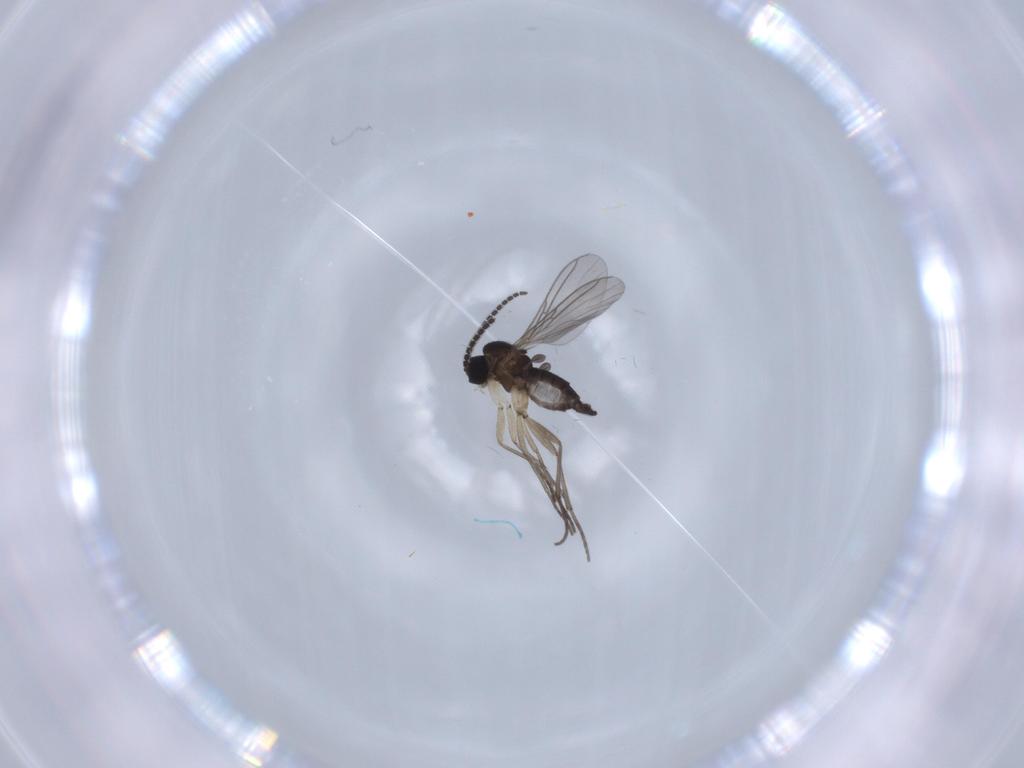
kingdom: Animalia
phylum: Arthropoda
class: Insecta
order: Diptera
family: Sciaridae
